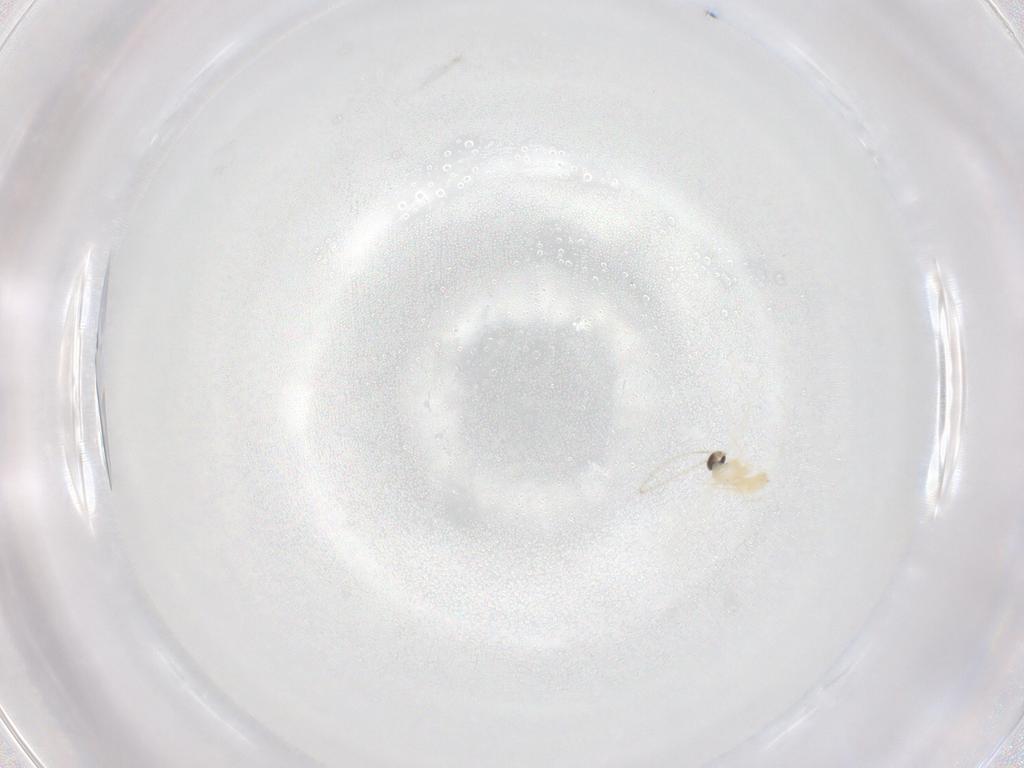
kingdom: Animalia
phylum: Arthropoda
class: Insecta
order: Diptera
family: Cecidomyiidae
